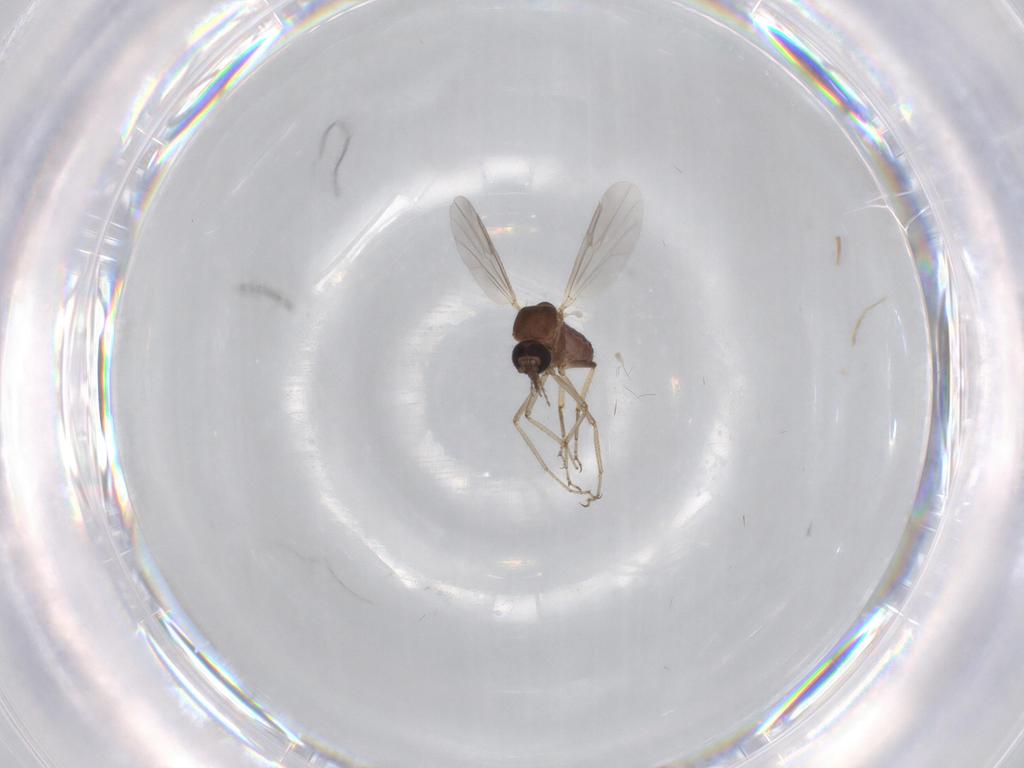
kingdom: Animalia
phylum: Arthropoda
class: Insecta
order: Diptera
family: Ceratopogonidae
